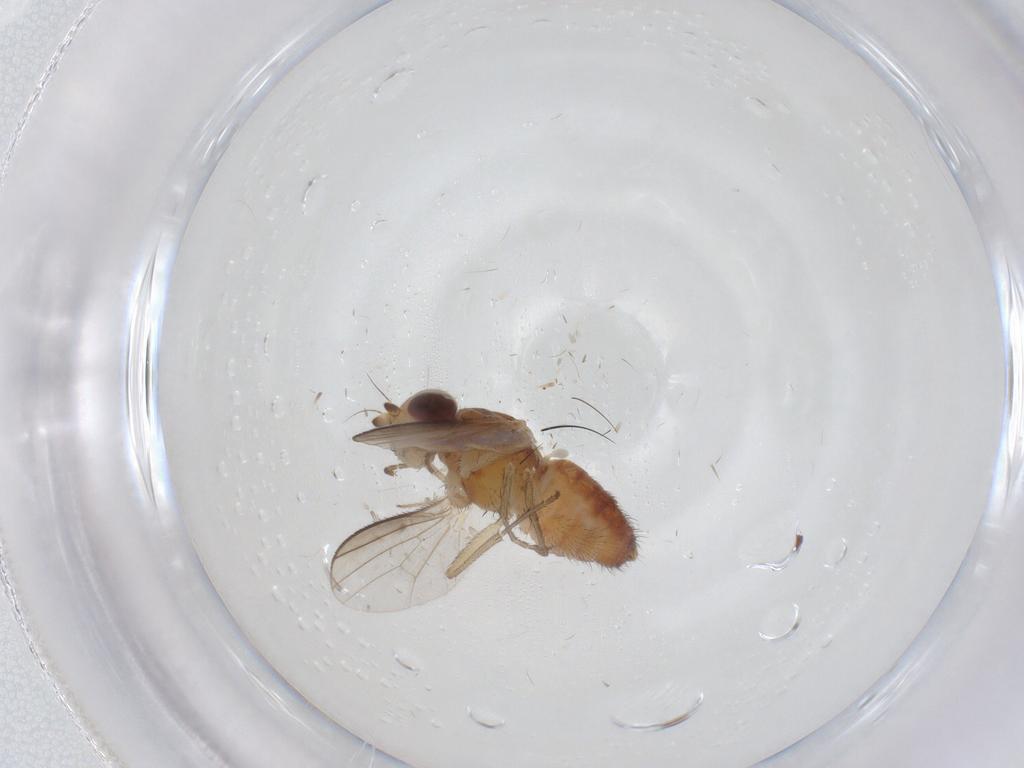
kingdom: Animalia
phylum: Arthropoda
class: Insecta
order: Diptera
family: Heleomyzidae
